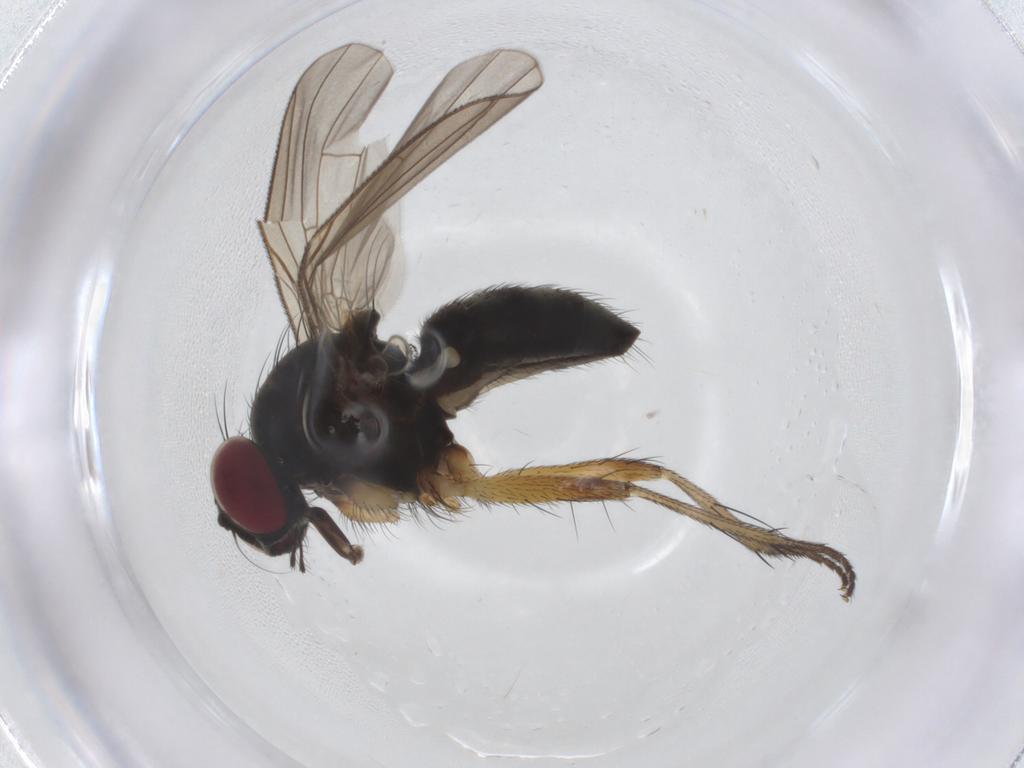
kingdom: Animalia
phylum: Arthropoda
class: Insecta
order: Diptera
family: Muscidae
